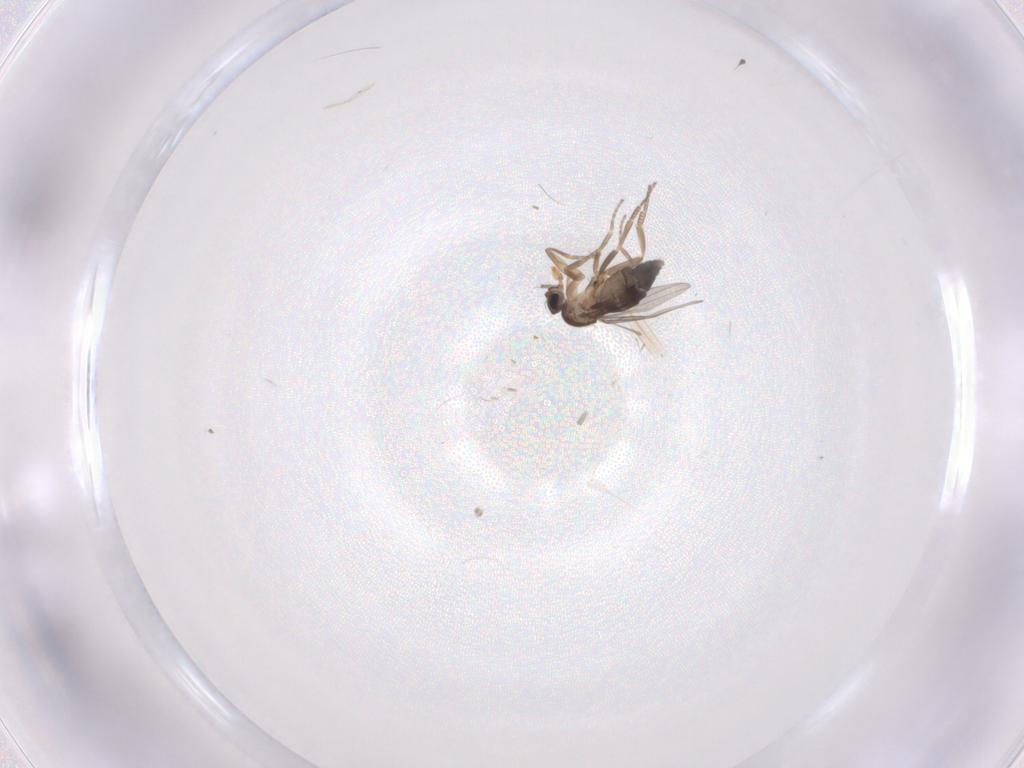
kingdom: Animalia
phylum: Arthropoda
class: Insecta
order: Diptera
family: Phoridae
